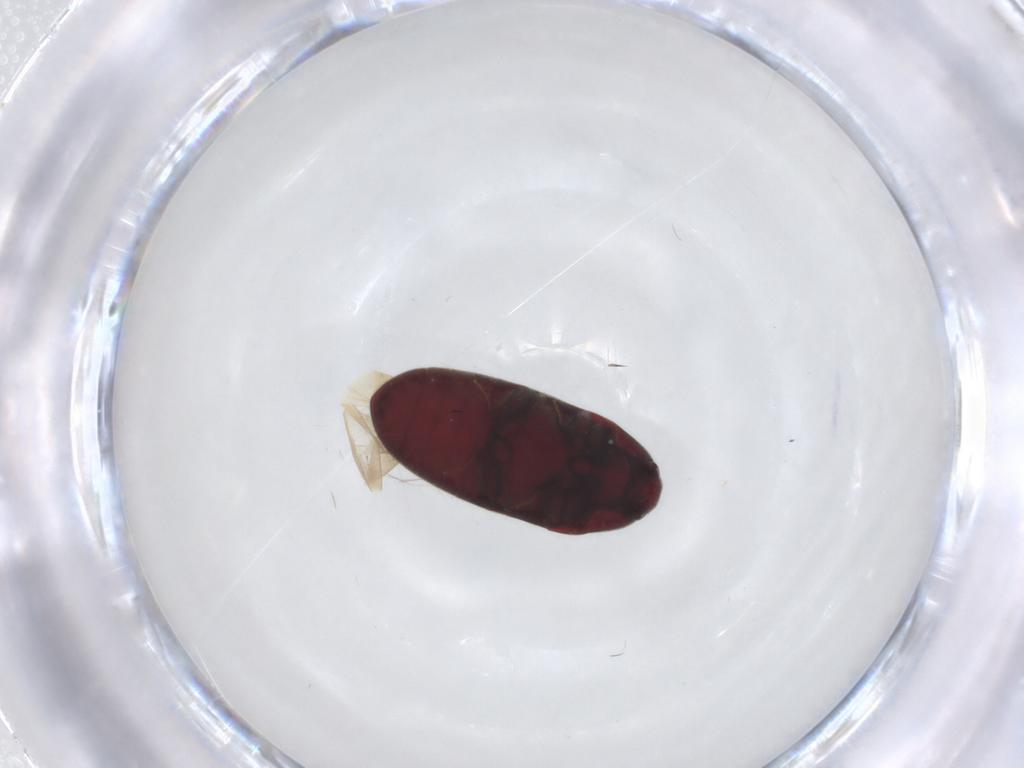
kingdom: Animalia
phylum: Arthropoda
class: Insecta
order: Coleoptera
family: Throscidae
